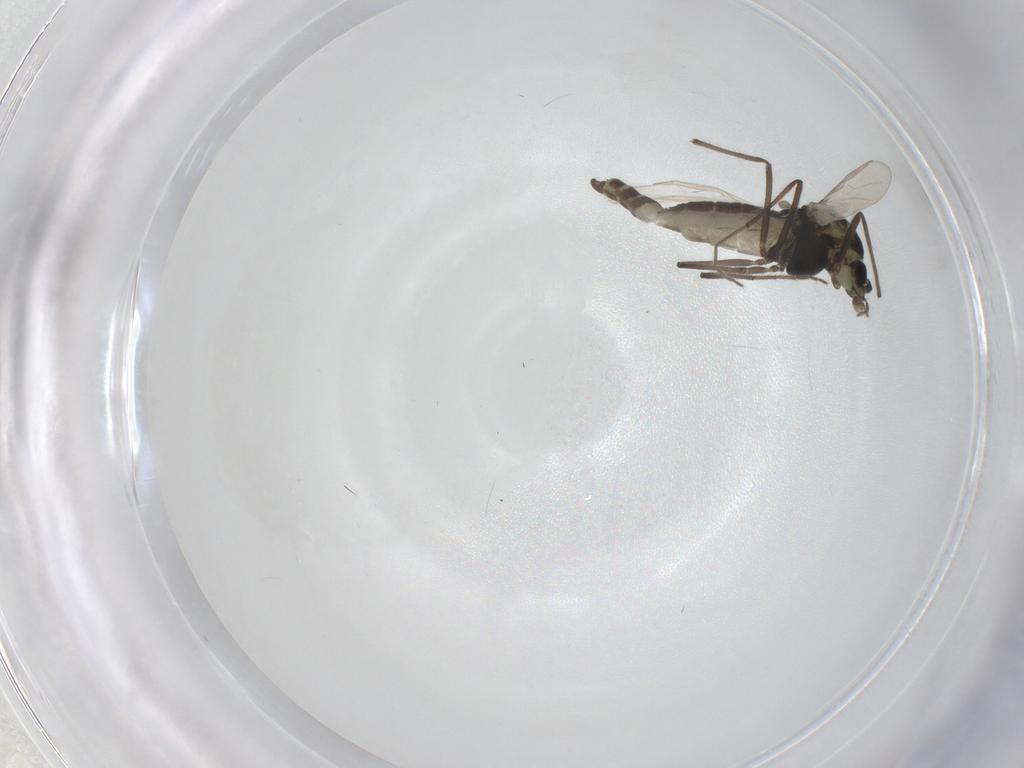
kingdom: Animalia
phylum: Arthropoda
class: Insecta
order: Diptera
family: Chironomidae
